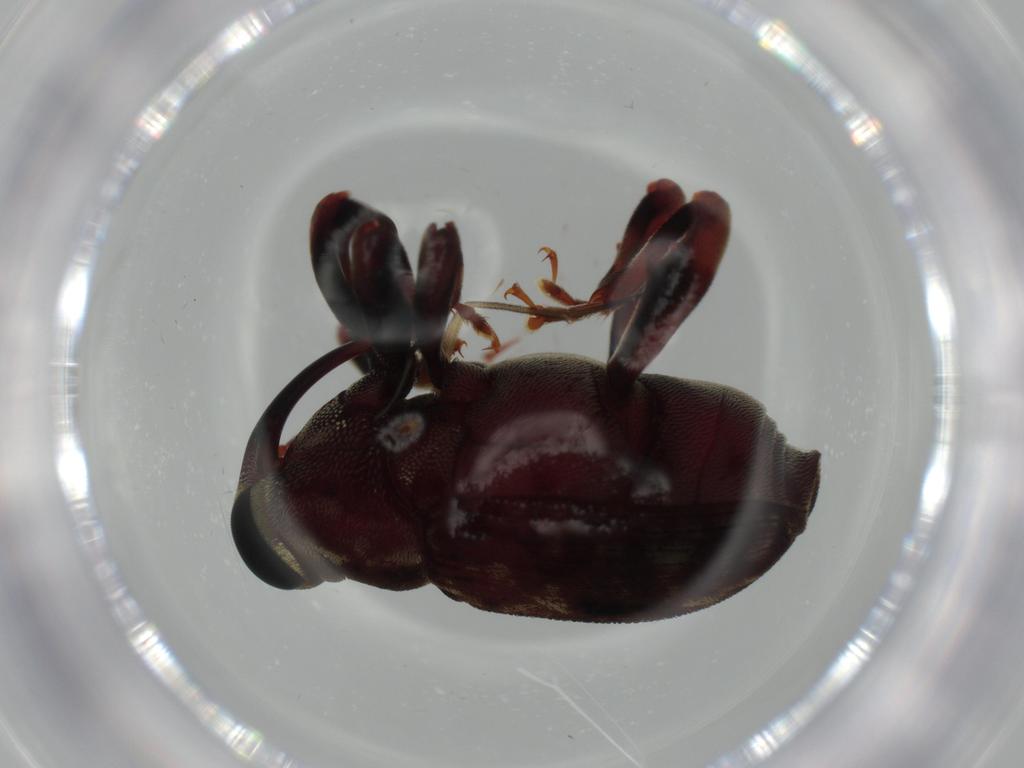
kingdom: Animalia
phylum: Arthropoda
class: Insecta
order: Coleoptera
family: Curculionidae
